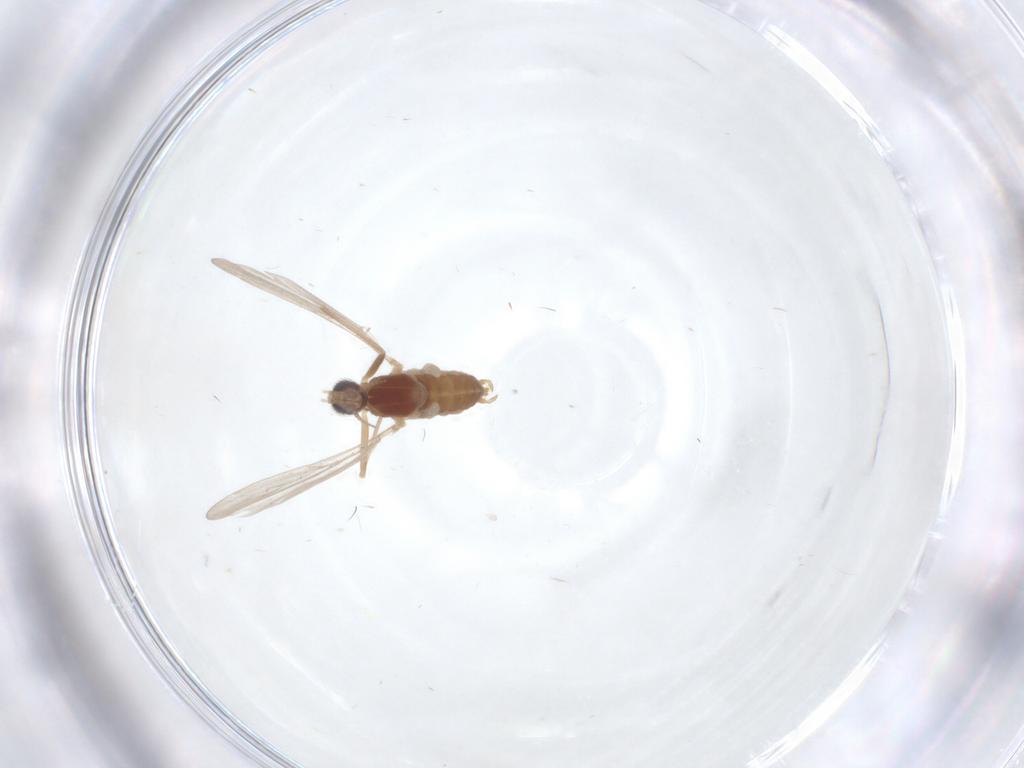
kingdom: Animalia
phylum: Arthropoda
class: Insecta
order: Diptera
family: Cecidomyiidae
